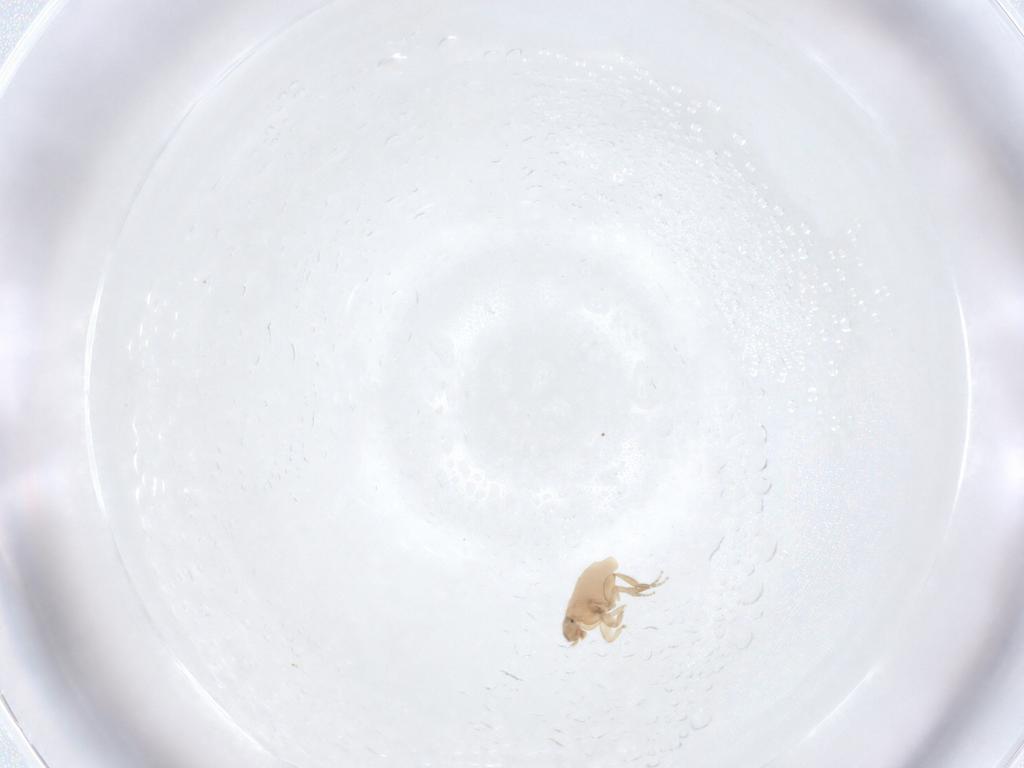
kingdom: Animalia
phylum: Arthropoda
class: Insecta
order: Diptera
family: Phoridae
